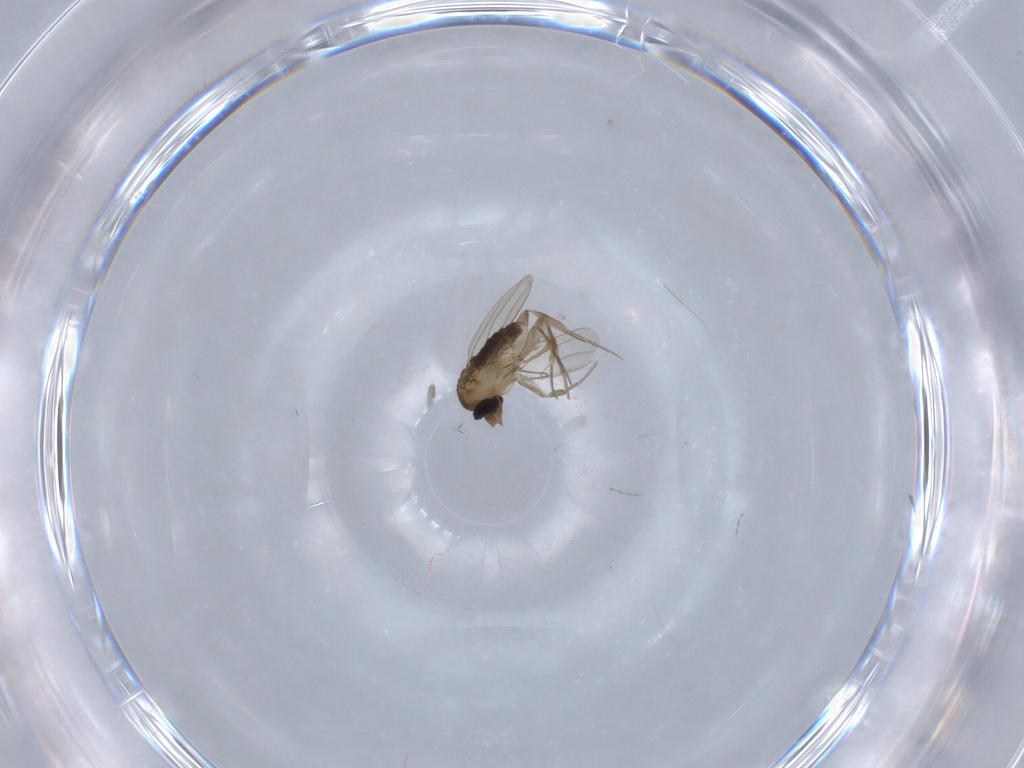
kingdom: Animalia
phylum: Arthropoda
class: Insecta
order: Diptera
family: Cecidomyiidae
